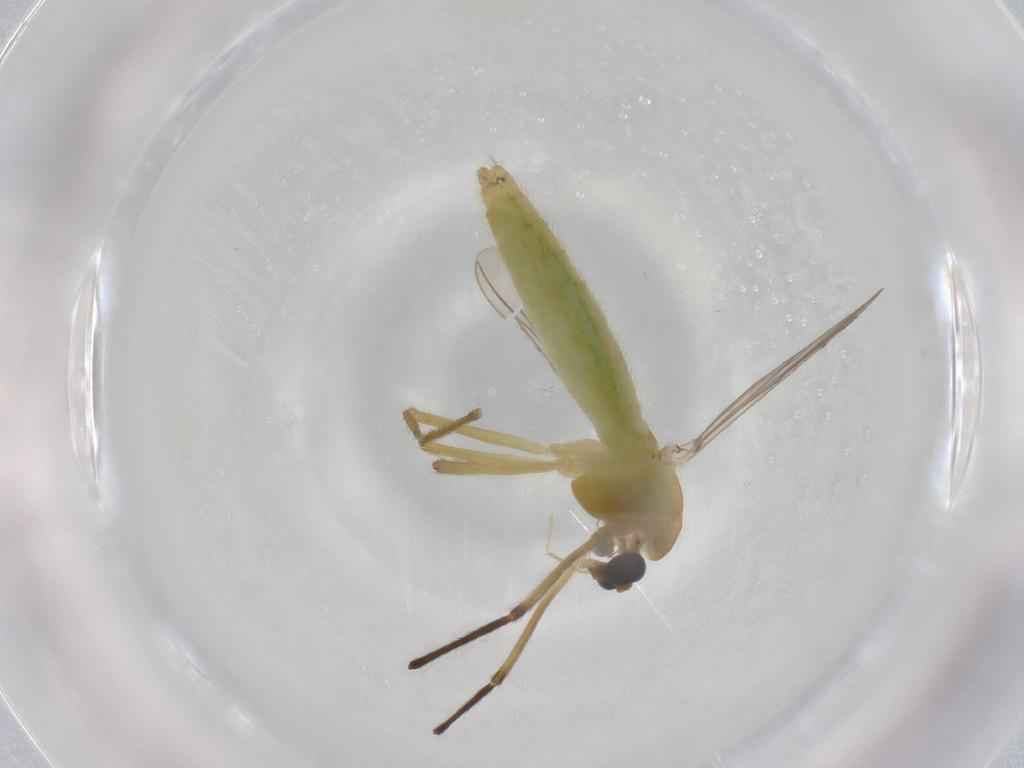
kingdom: Animalia
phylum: Arthropoda
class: Insecta
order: Diptera
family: Chironomidae
